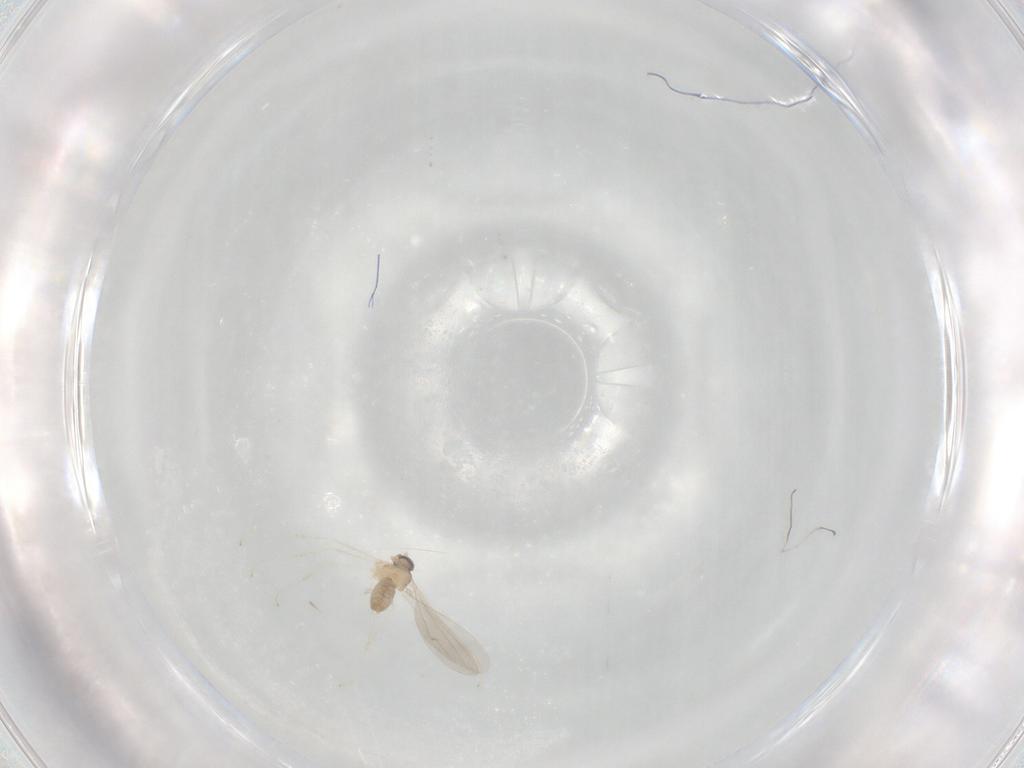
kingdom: Animalia
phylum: Arthropoda
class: Insecta
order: Diptera
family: Cecidomyiidae
